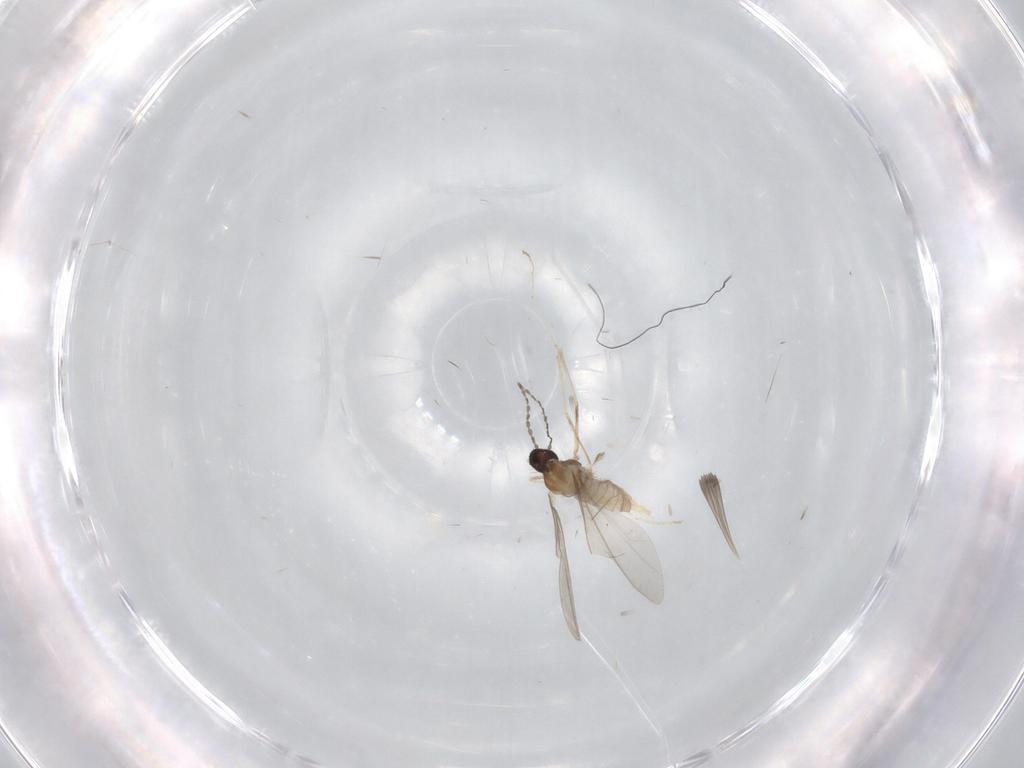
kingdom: Animalia
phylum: Arthropoda
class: Insecta
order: Diptera
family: Cecidomyiidae
